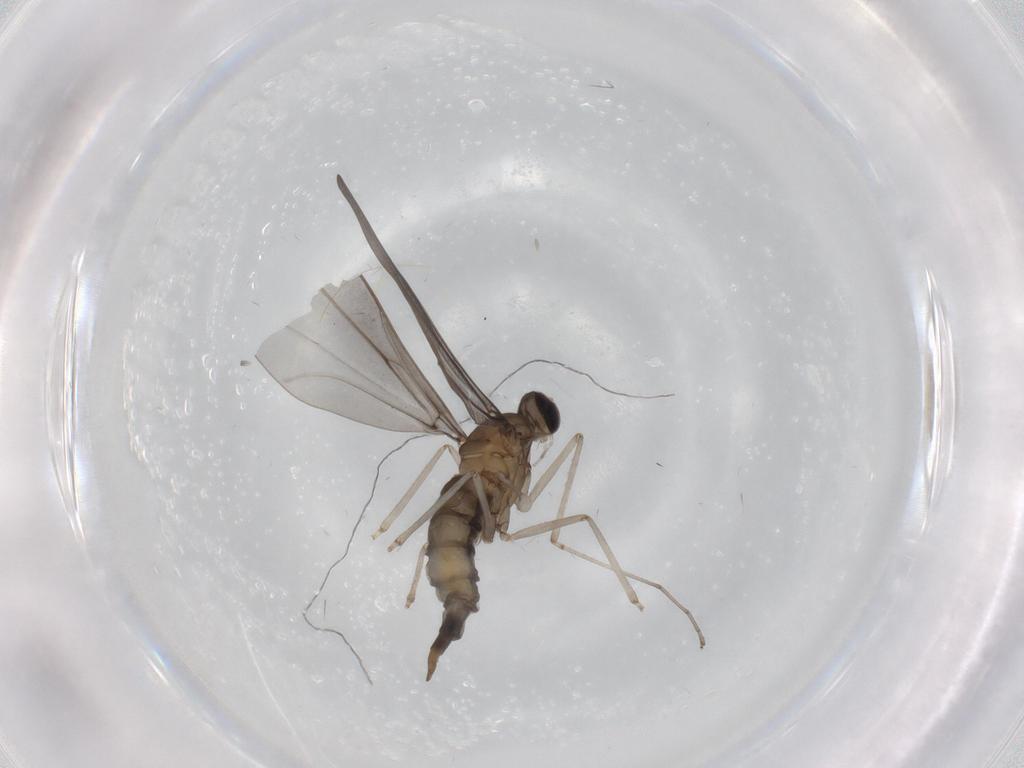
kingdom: Animalia
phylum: Arthropoda
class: Insecta
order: Diptera
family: Cecidomyiidae
